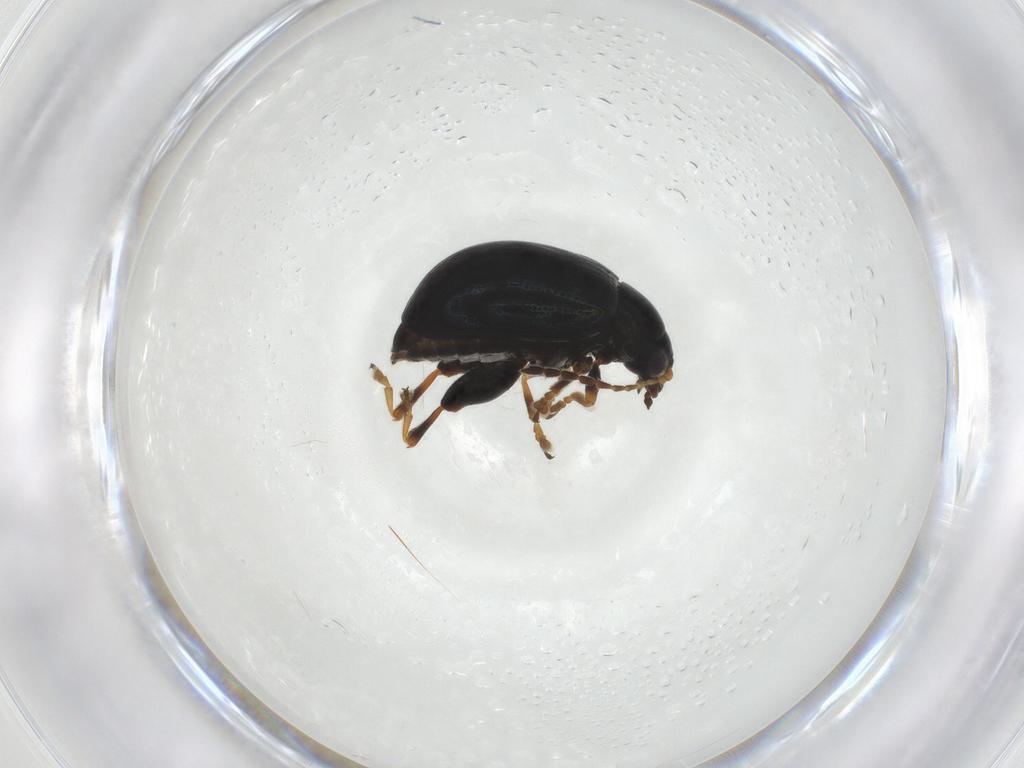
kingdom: Animalia
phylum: Arthropoda
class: Insecta
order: Coleoptera
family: Chrysomelidae
